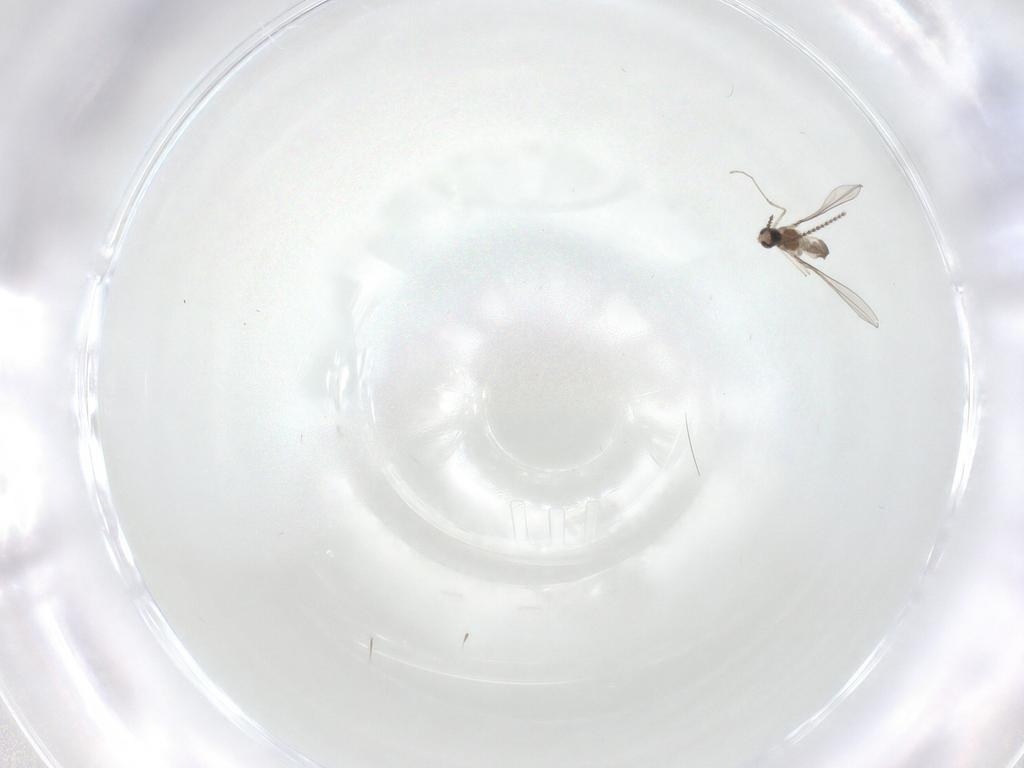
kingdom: Animalia
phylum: Arthropoda
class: Insecta
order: Diptera
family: Cecidomyiidae
